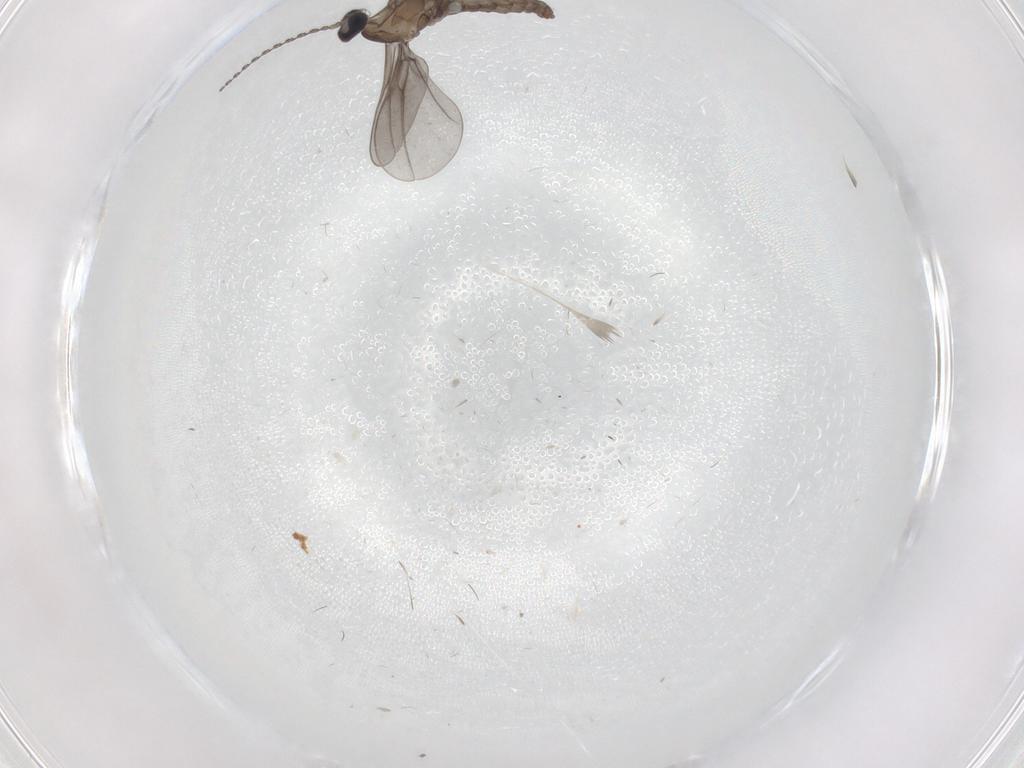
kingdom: Animalia
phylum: Arthropoda
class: Insecta
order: Diptera
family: Cecidomyiidae
